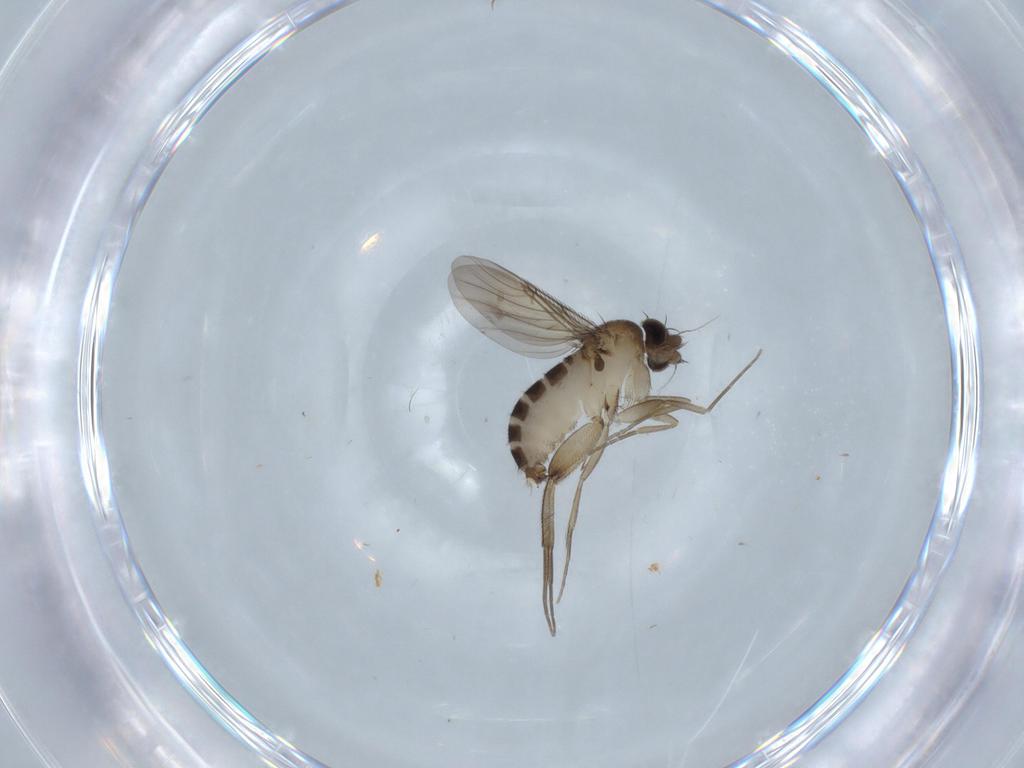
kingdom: Animalia
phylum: Arthropoda
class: Insecta
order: Diptera
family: Phoridae
